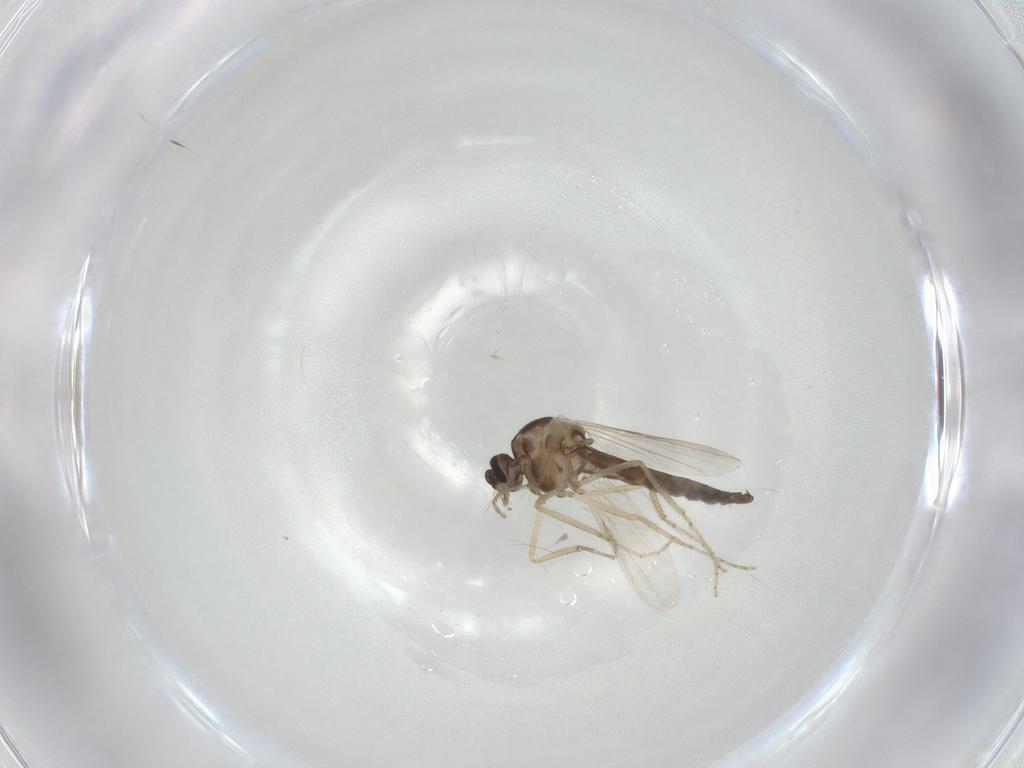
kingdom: Animalia
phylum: Arthropoda
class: Insecta
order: Diptera
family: Ceratopogonidae
